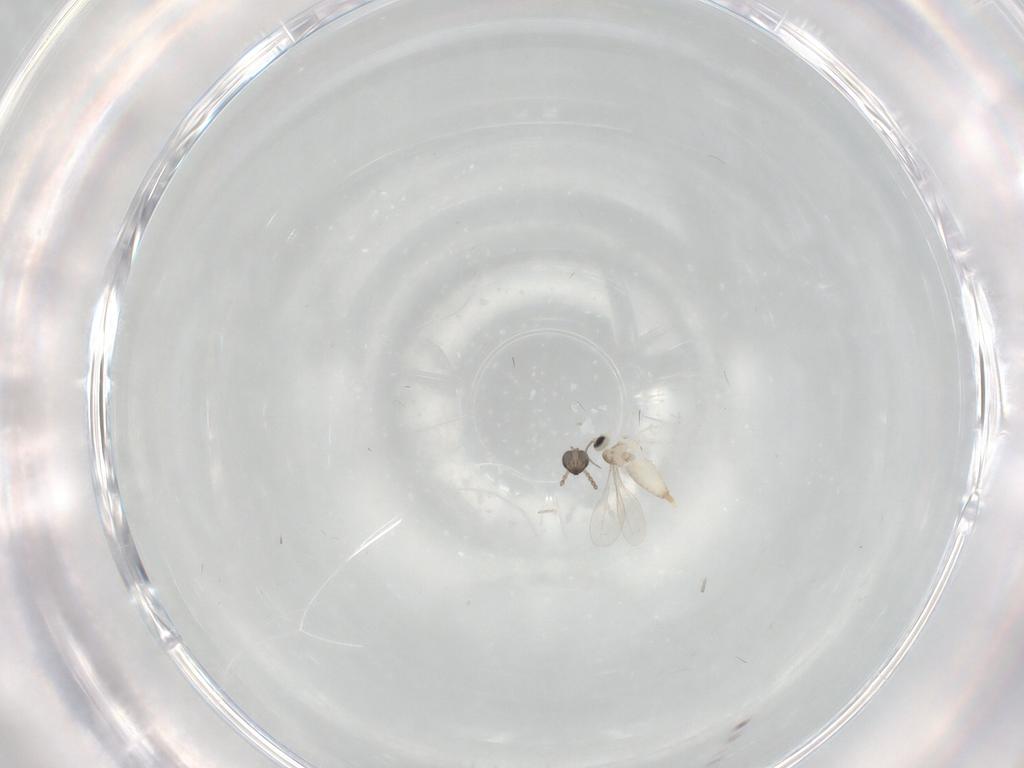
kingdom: Animalia
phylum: Arthropoda
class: Insecta
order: Diptera
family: Cecidomyiidae
